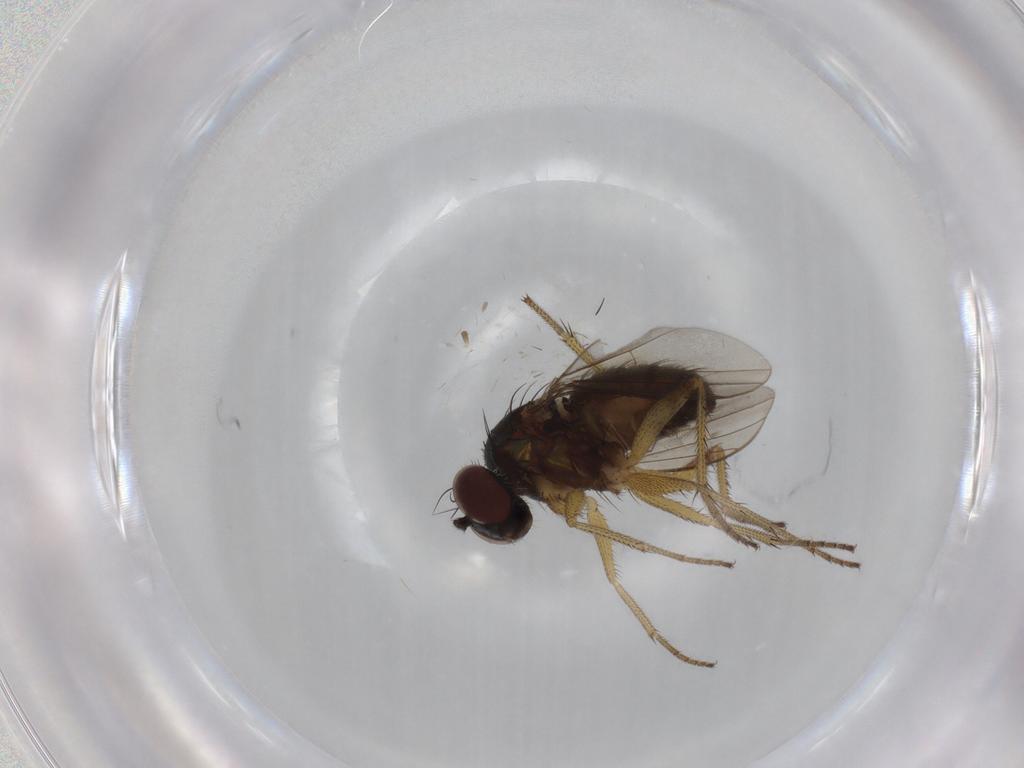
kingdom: Animalia
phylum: Arthropoda
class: Insecta
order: Diptera
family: Dolichopodidae
